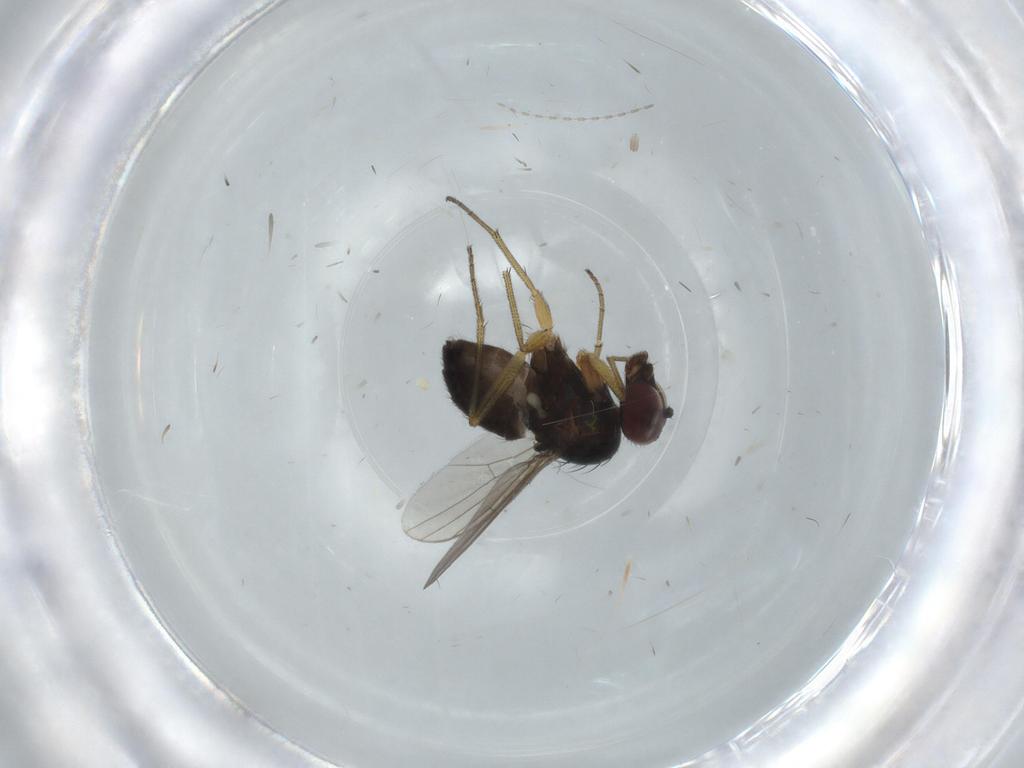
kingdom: Animalia
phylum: Arthropoda
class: Insecta
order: Diptera
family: Dolichopodidae
